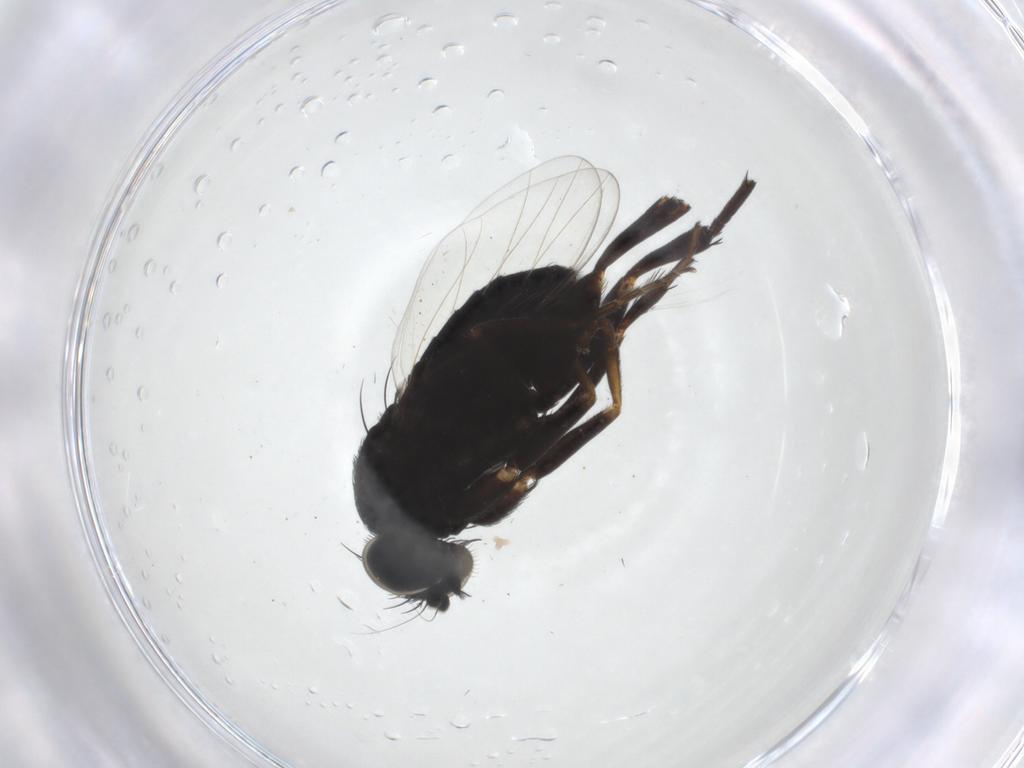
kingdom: Animalia
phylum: Arthropoda
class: Insecta
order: Diptera
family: Phoridae
